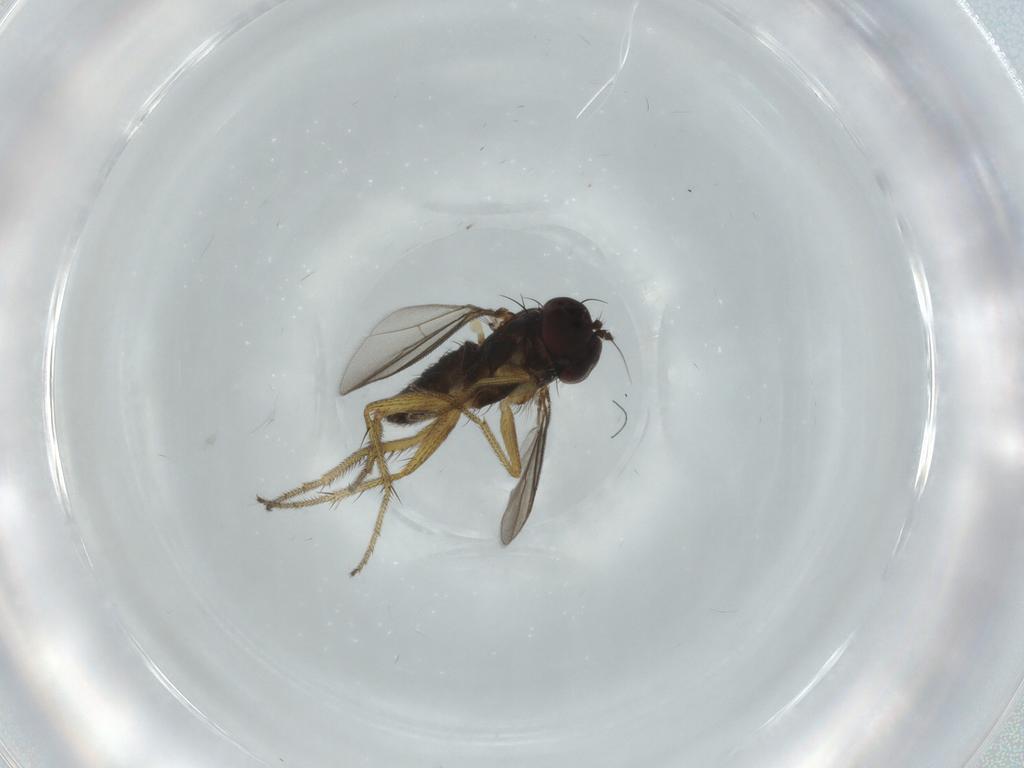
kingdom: Animalia
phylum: Arthropoda
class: Insecta
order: Diptera
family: Dolichopodidae
